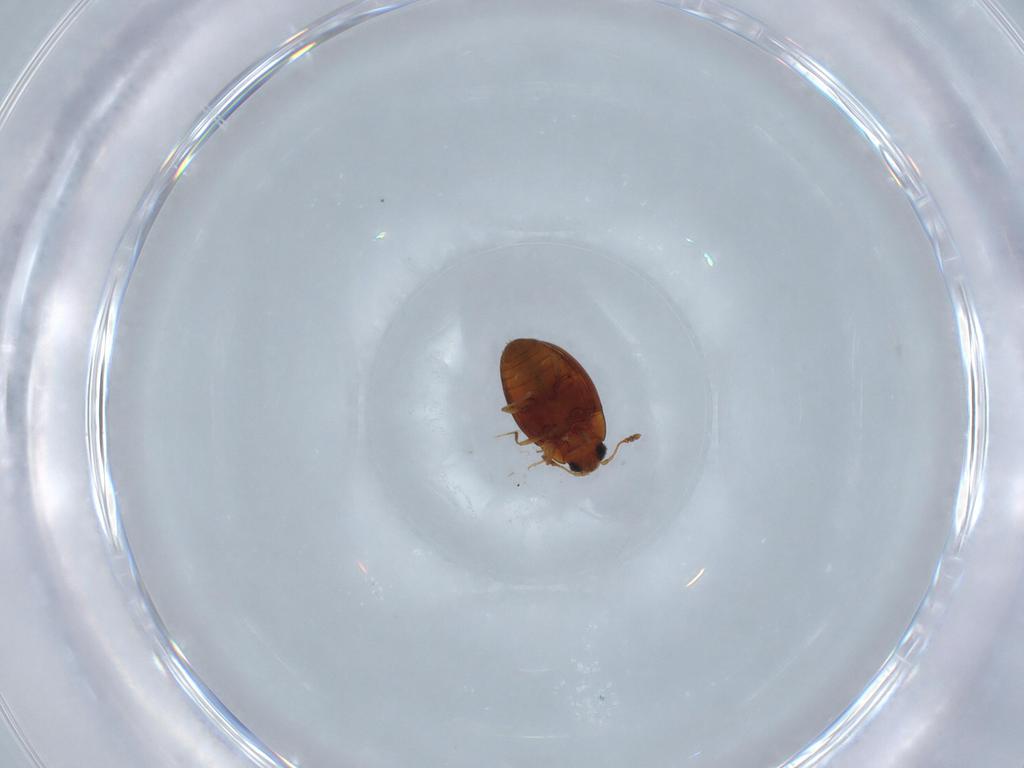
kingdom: Animalia
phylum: Arthropoda
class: Insecta
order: Coleoptera
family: Cryptophagidae
